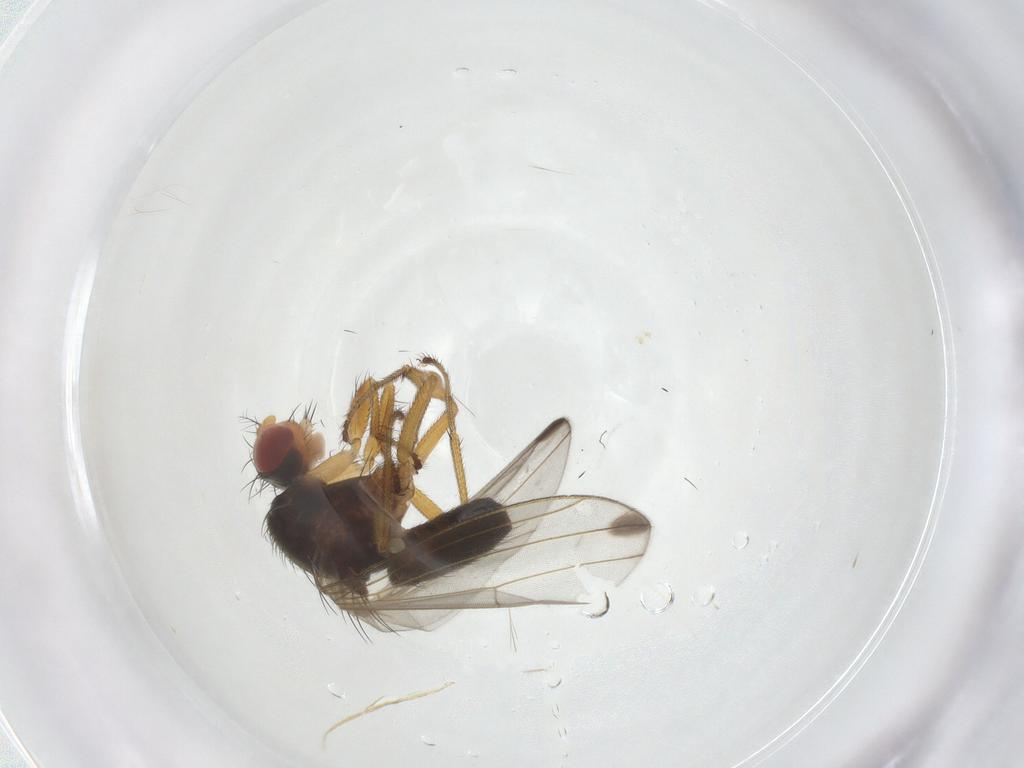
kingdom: Animalia
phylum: Arthropoda
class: Insecta
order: Diptera
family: Drosophilidae
